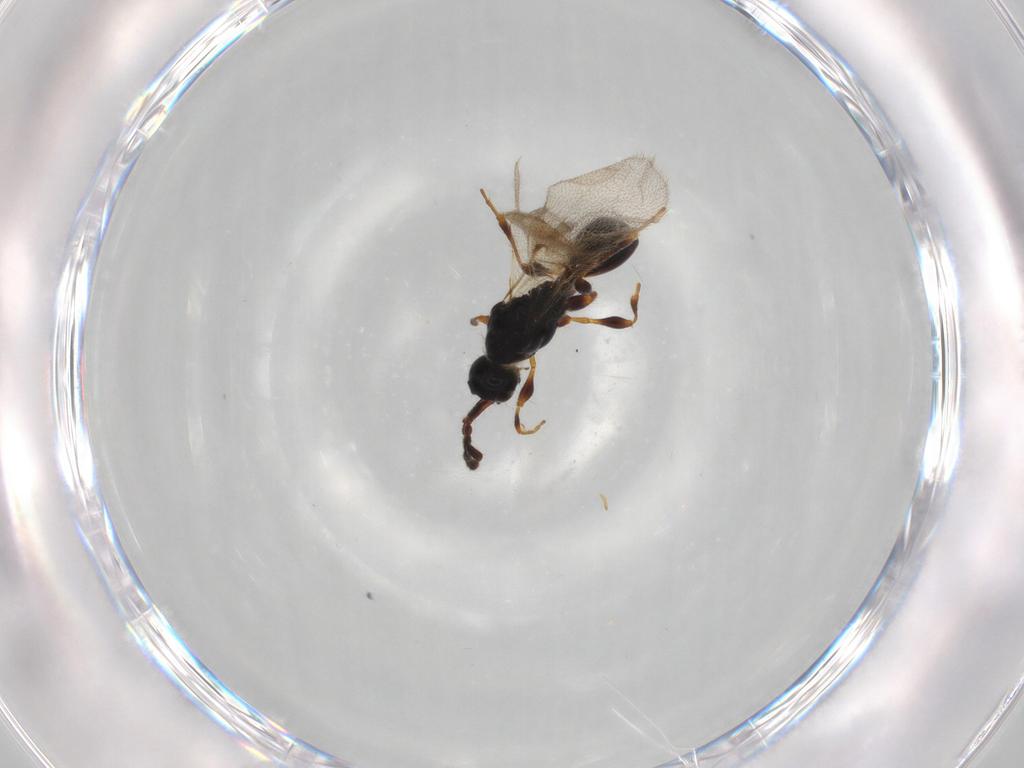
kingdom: Animalia
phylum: Arthropoda
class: Insecta
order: Hymenoptera
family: Diapriidae
